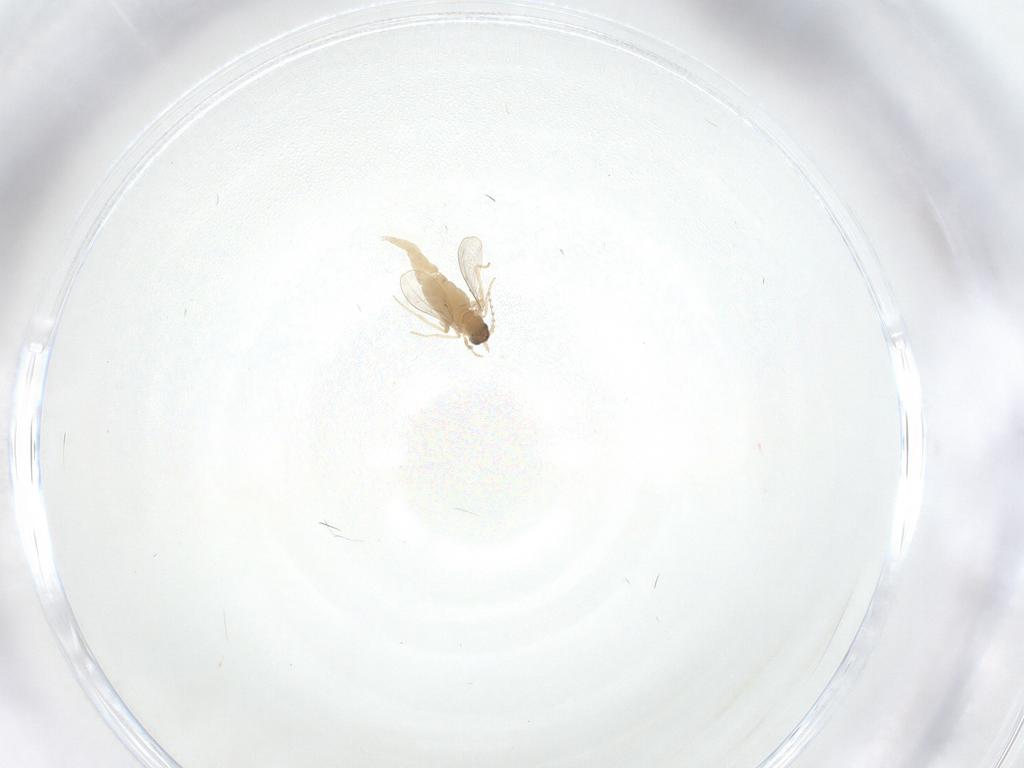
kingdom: Animalia
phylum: Arthropoda
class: Insecta
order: Diptera
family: Cecidomyiidae
